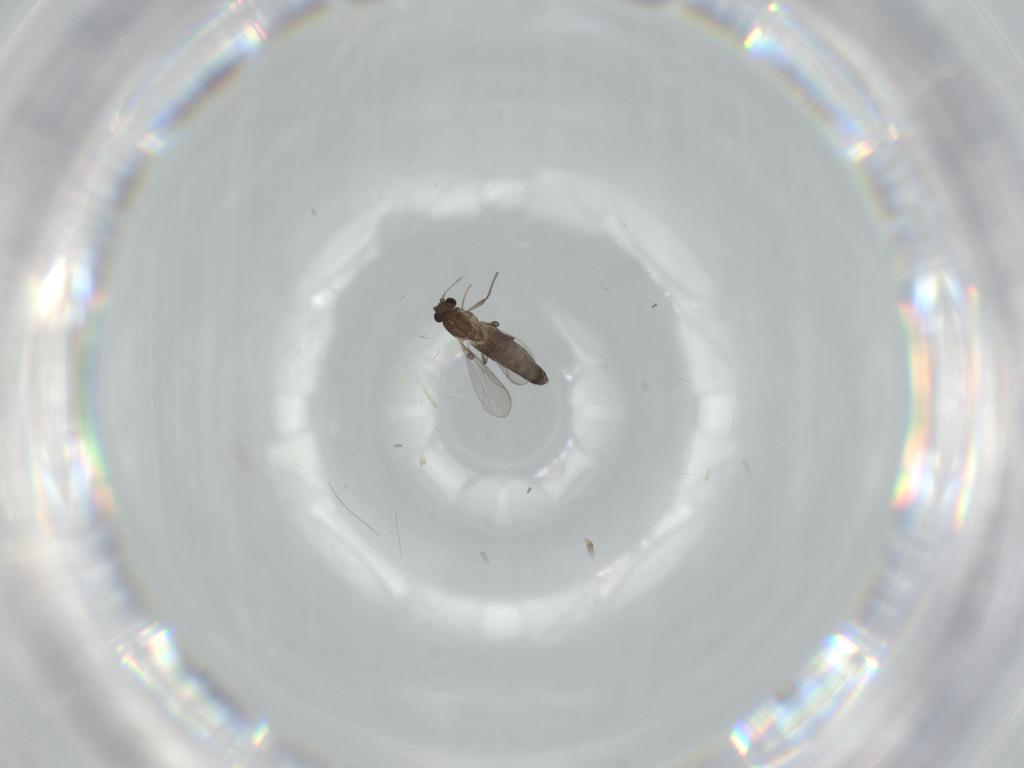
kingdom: Animalia
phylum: Arthropoda
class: Insecta
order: Diptera
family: Chironomidae
